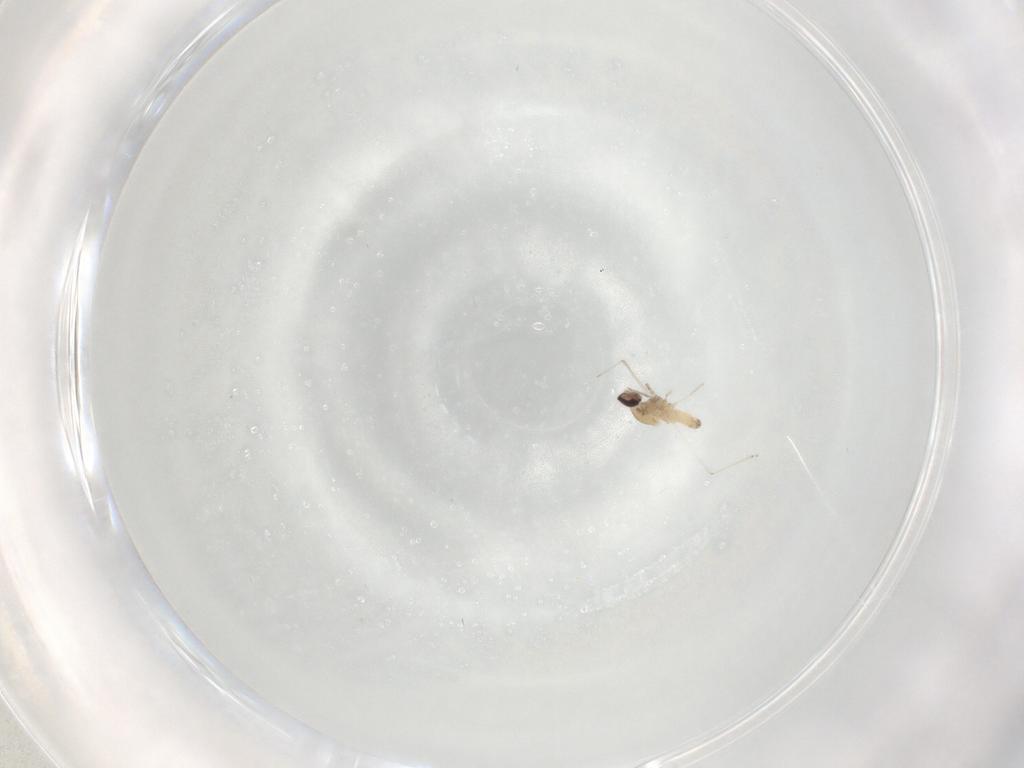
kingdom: Animalia
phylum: Arthropoda
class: Insecta
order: Diptera
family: Cecidomyiidae
